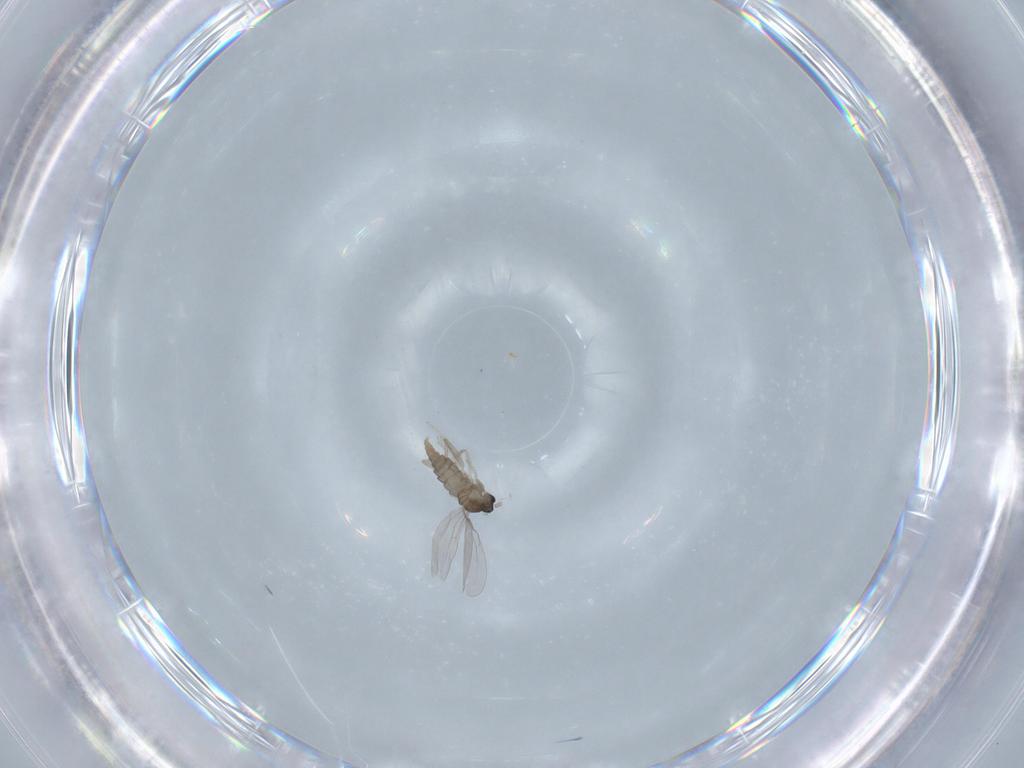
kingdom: Animalia
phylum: Arthropoda
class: Insecta
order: Diptera
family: Cecidomyiidae
